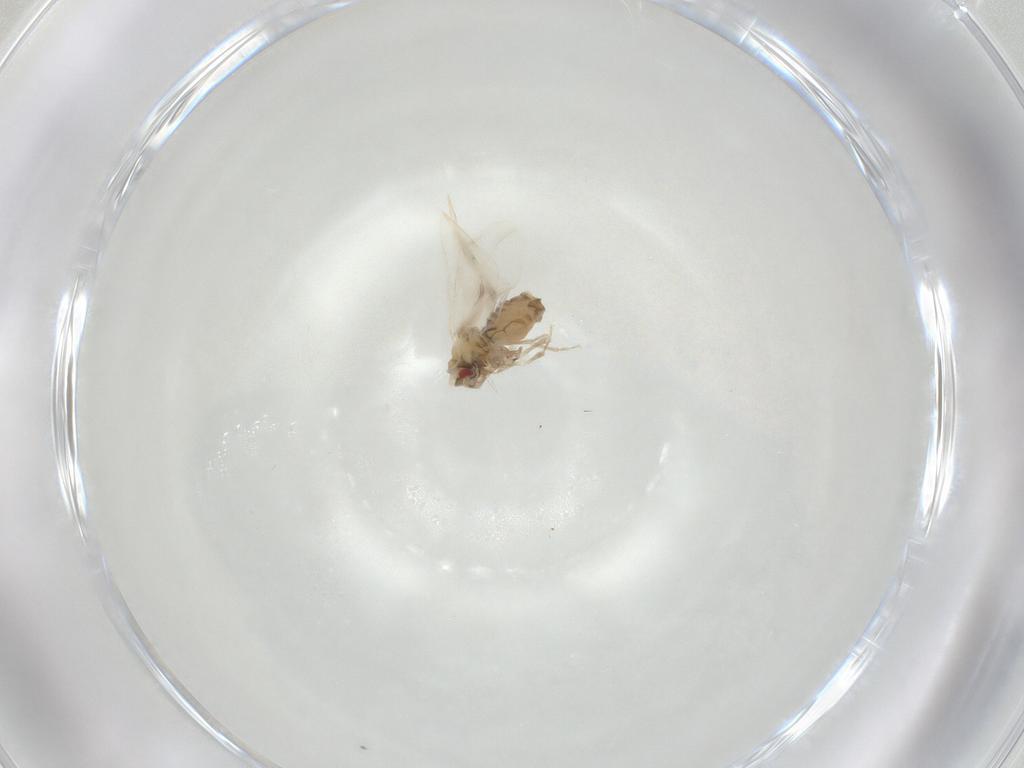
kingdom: Animalia
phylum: Arthropoda
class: Insecta
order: Hemiptera
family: Aleyrodidae
